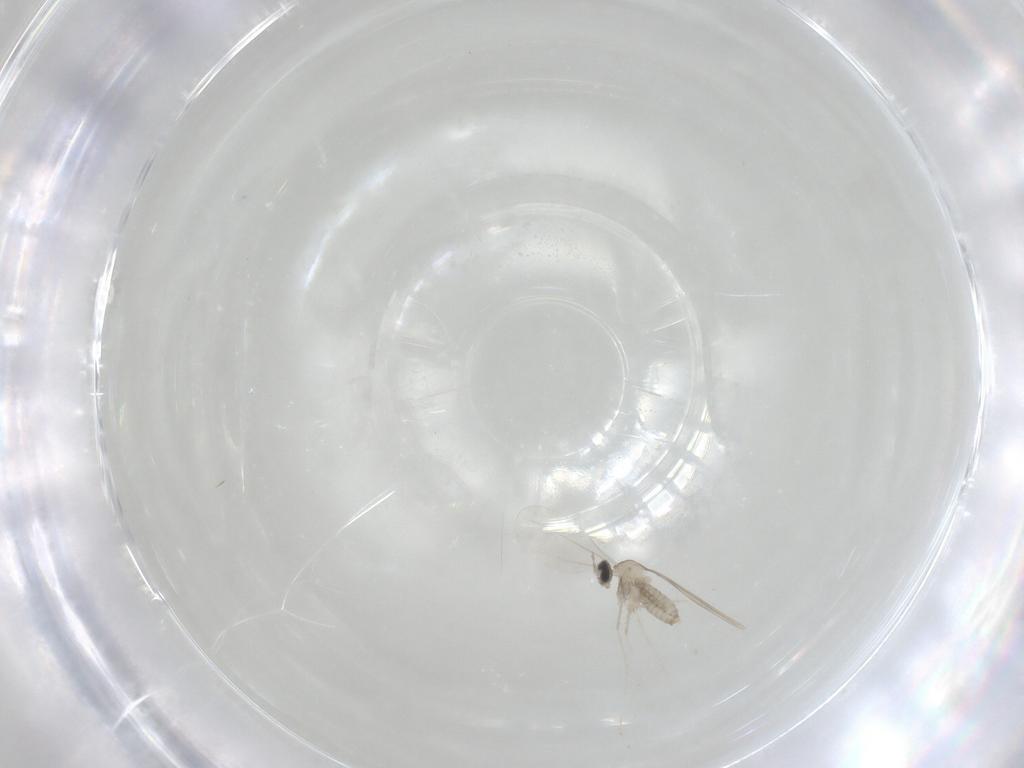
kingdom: Animalia
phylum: Arthropoda
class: Insecta
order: Diptera
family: Cecidomyiidae
